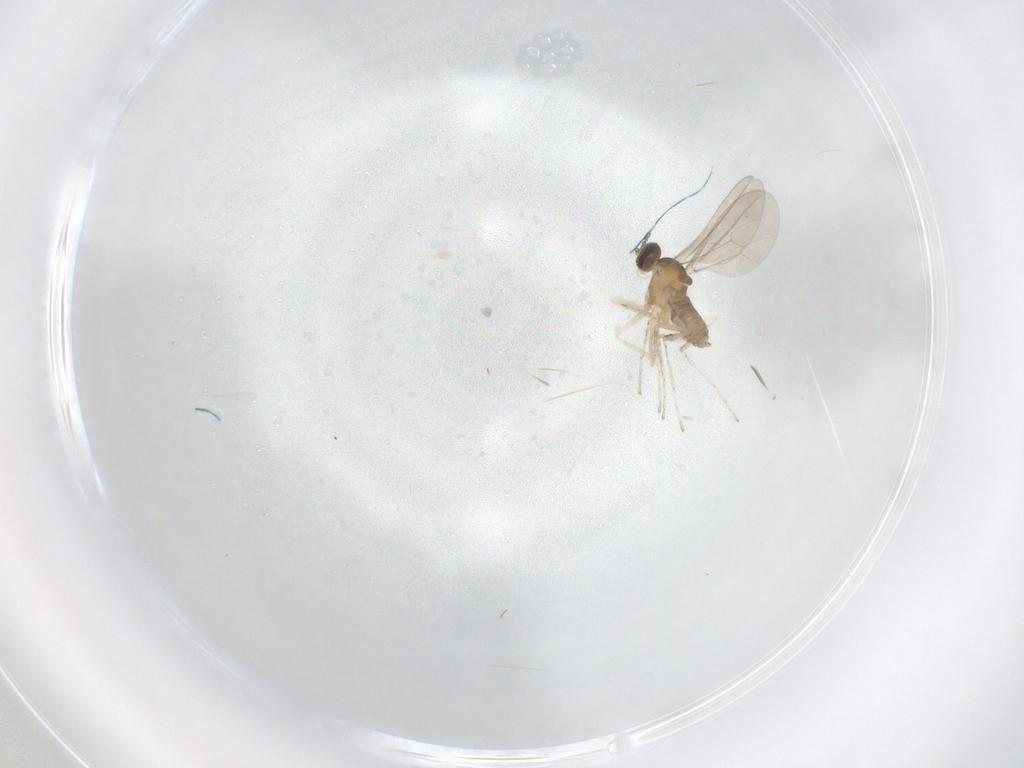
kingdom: Animalia
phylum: Arthropoda
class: Insecta
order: Diptera
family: Cecidomyiidae
